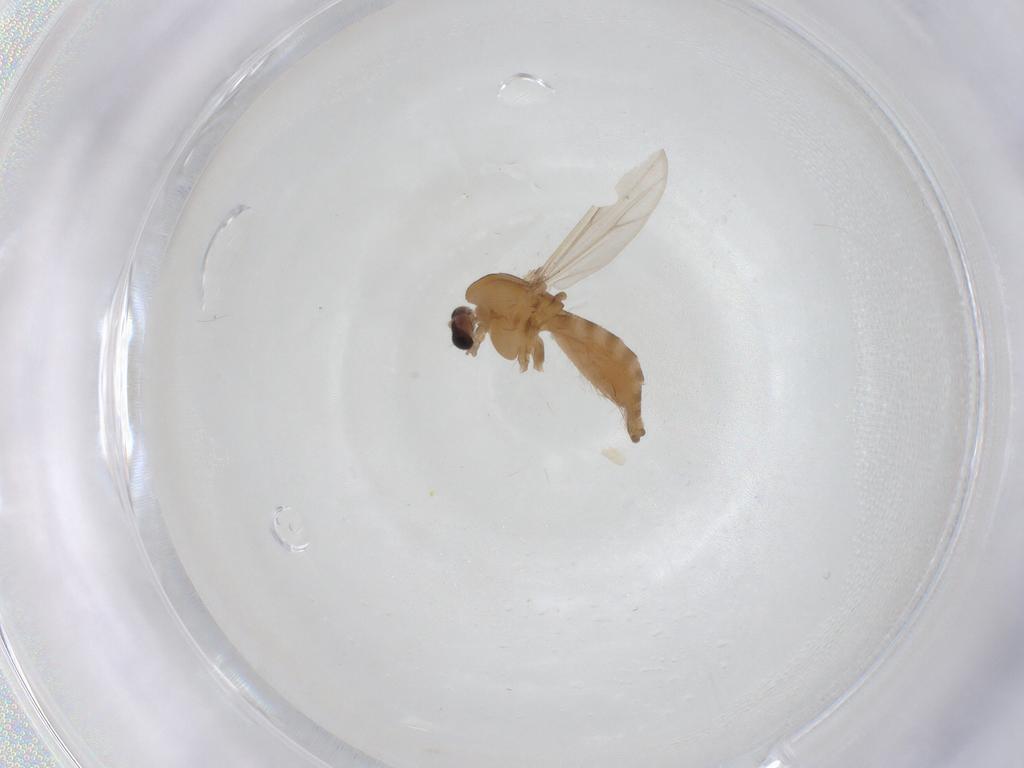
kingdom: Animalia
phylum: Arthropoda
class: Insecta
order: Diptera
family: Chironomidae
